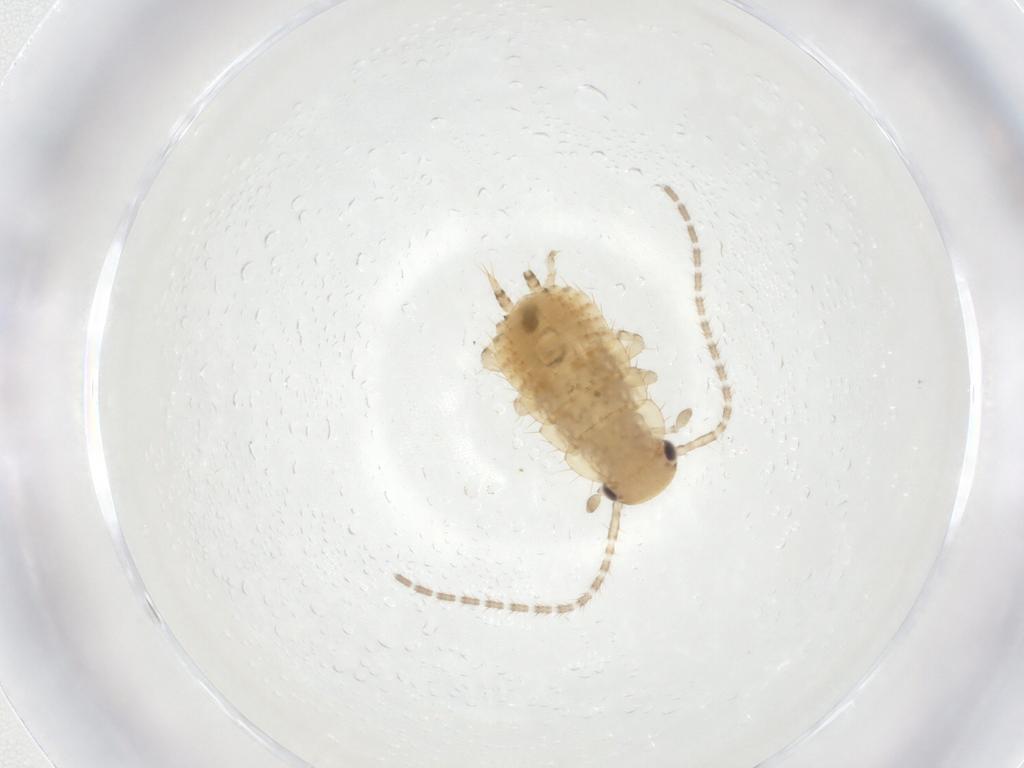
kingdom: Animalia
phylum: Arthropoda
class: Insecta
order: Blattodea
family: Ectobiidae
